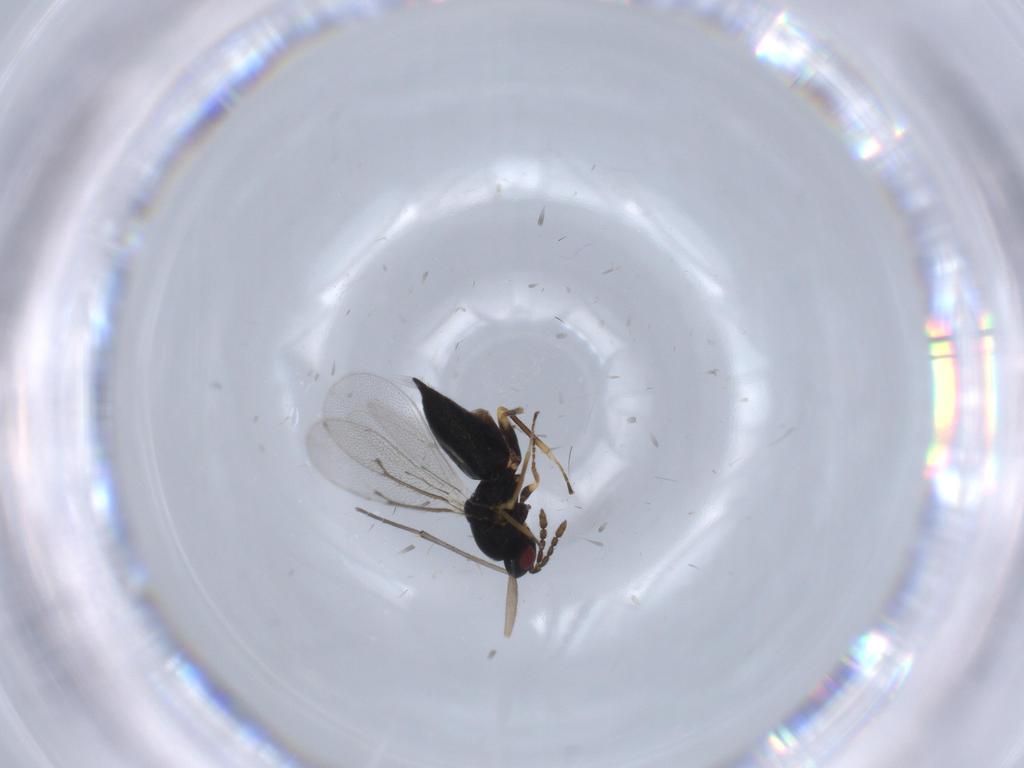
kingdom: Animalia
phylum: Arthropoda
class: Insecta
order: Hymenoptera
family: Eulophidae
